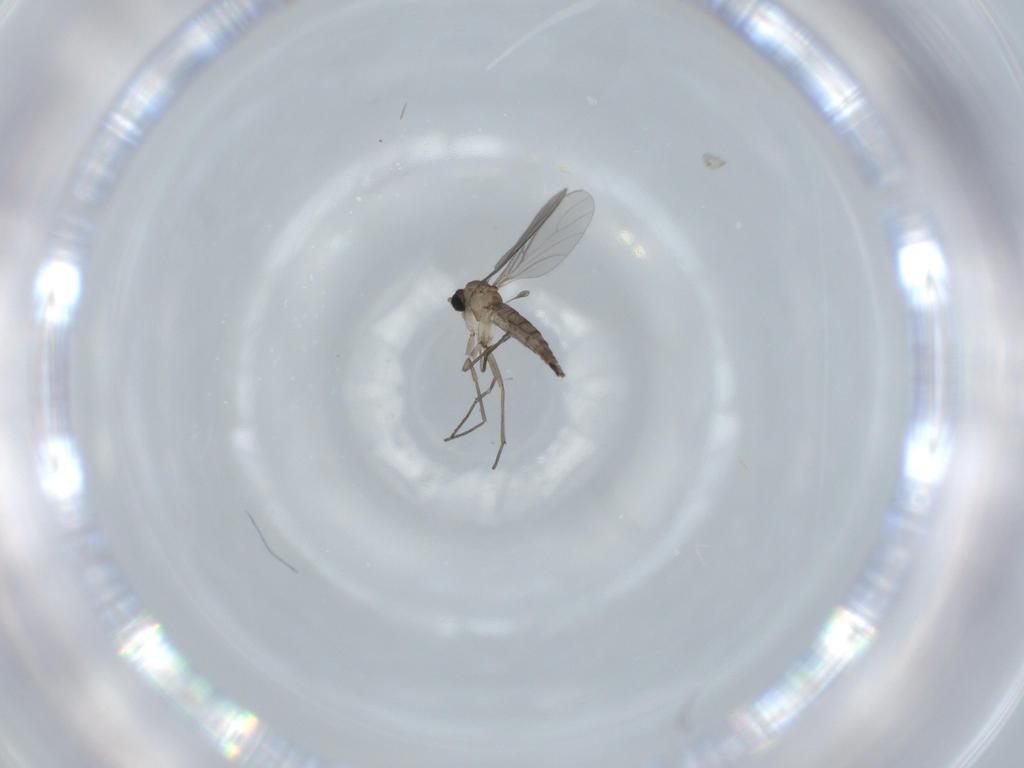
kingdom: Animalia
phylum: Arthropoda
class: Insecta
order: Diptera
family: Sciaridae
